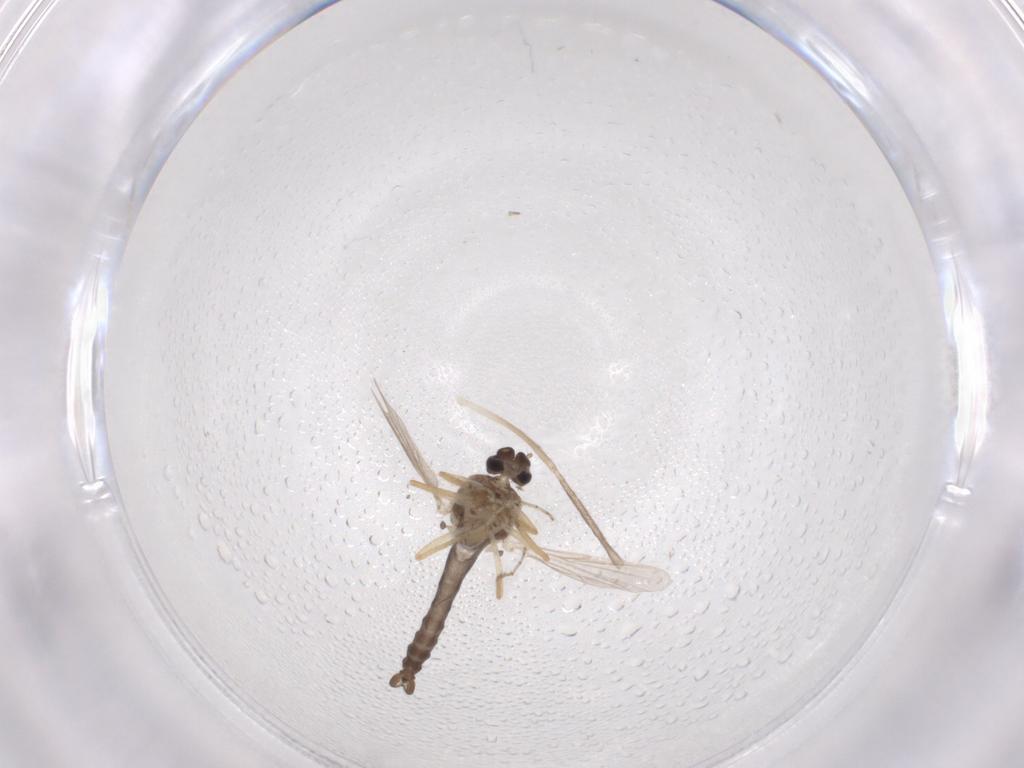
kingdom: Animalia
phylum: Arthropoda
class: Insecta
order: Diptera
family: Ceratopogonidae
